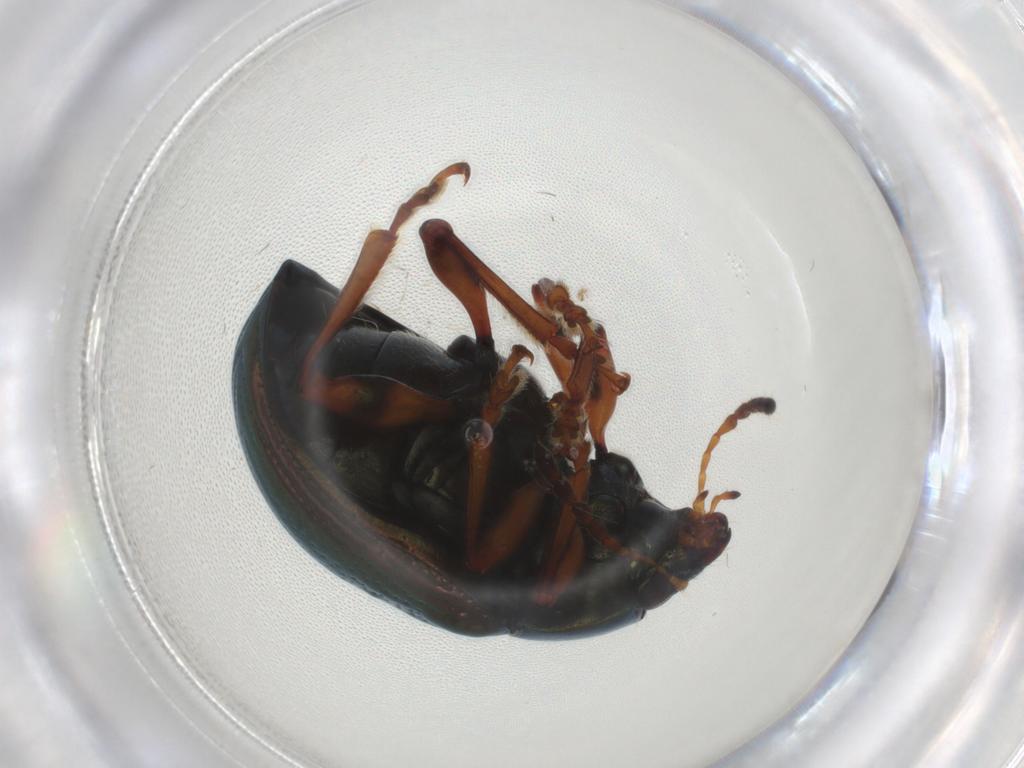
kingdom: Animalia
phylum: Arthropoda
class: Insecta
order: Coleoptera
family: Chrysomelidae
